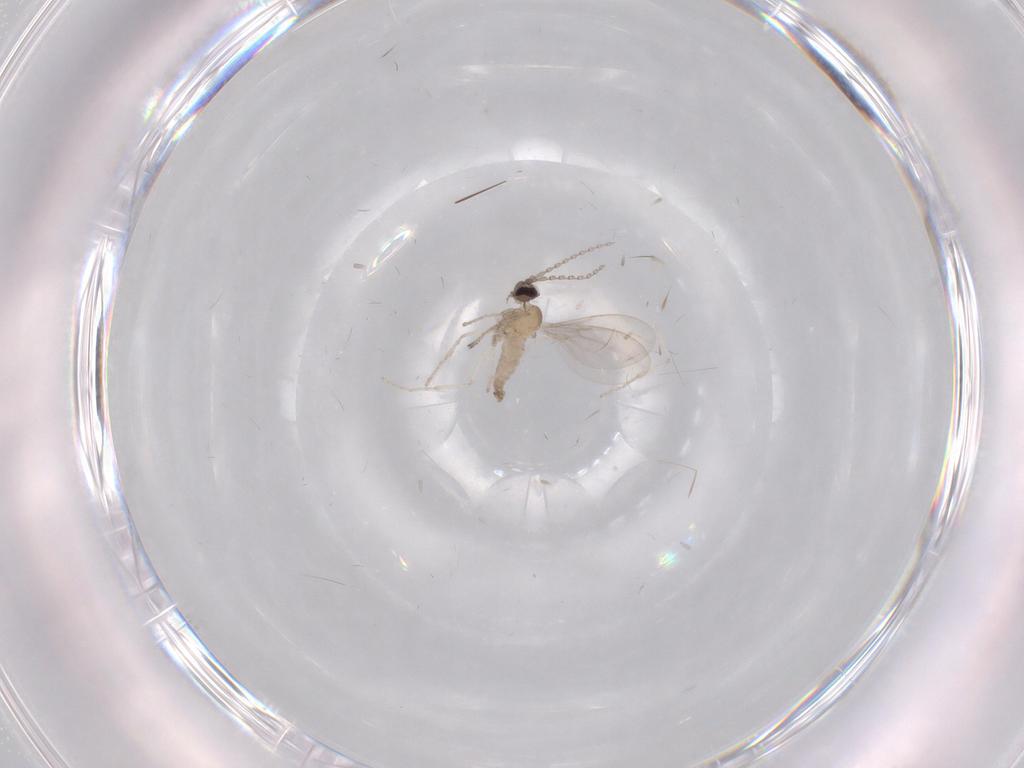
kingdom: Animalia
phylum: Arthropoda
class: Insecta
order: Diptera
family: Cecidomyiidae
